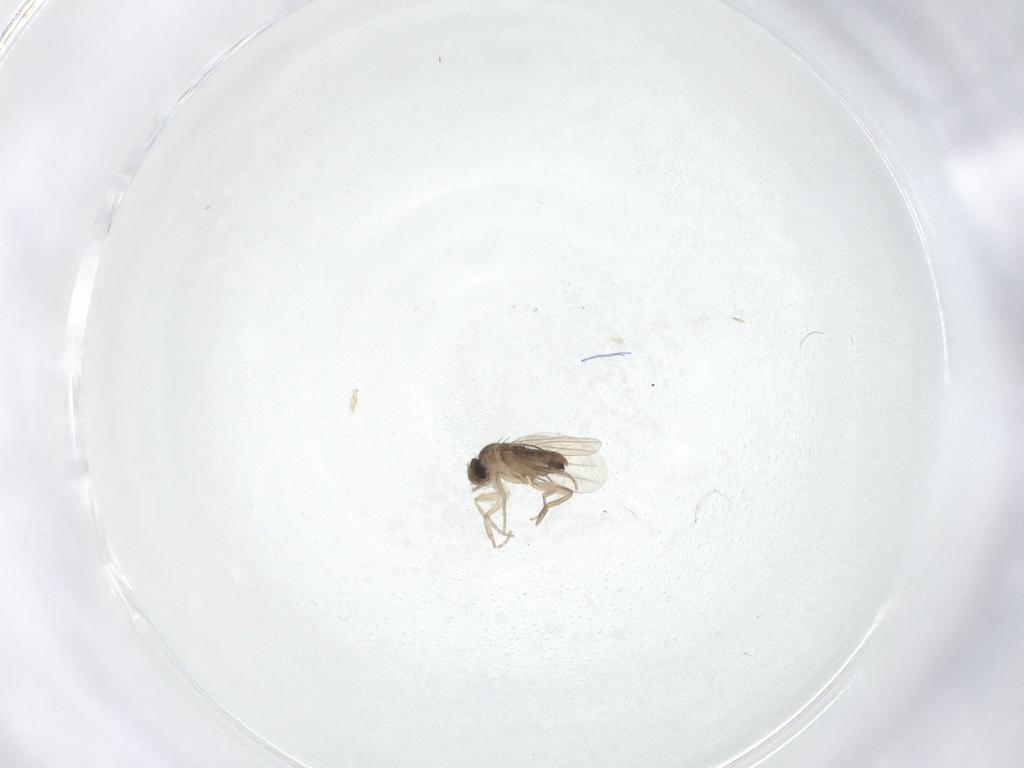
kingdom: Animalia
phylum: Arthropoda
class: Insecta
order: Diptera
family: Phoridae
